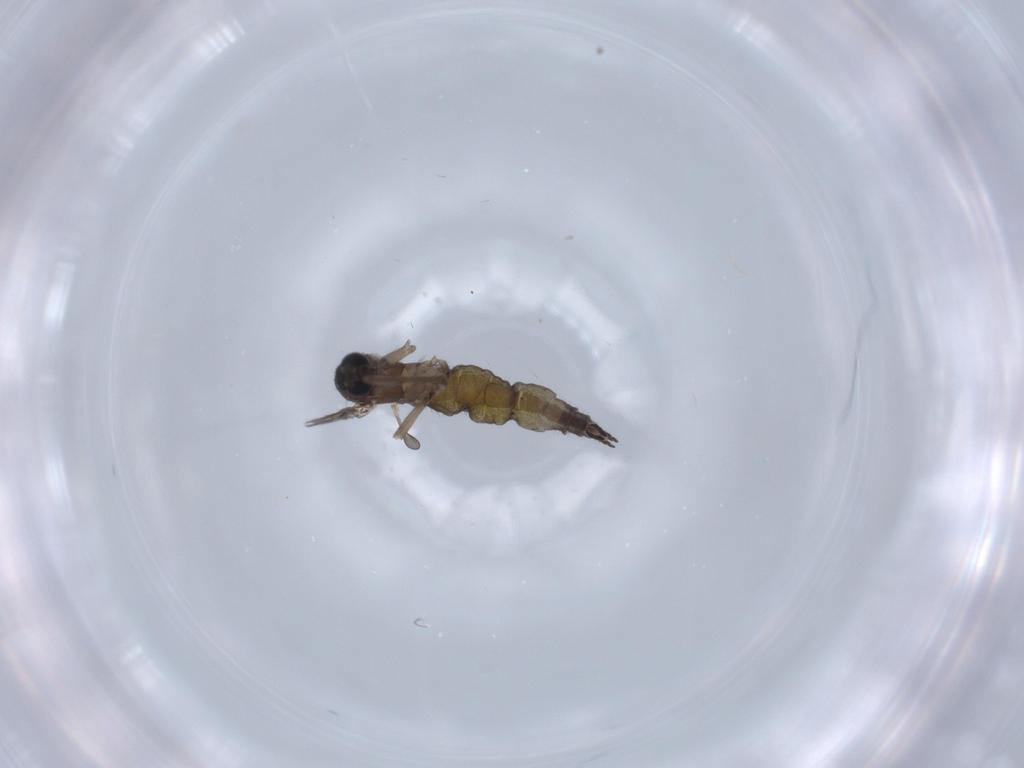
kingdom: Animalia
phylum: Arthropoda
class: Insecta
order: Diptera
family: Sciaridae
